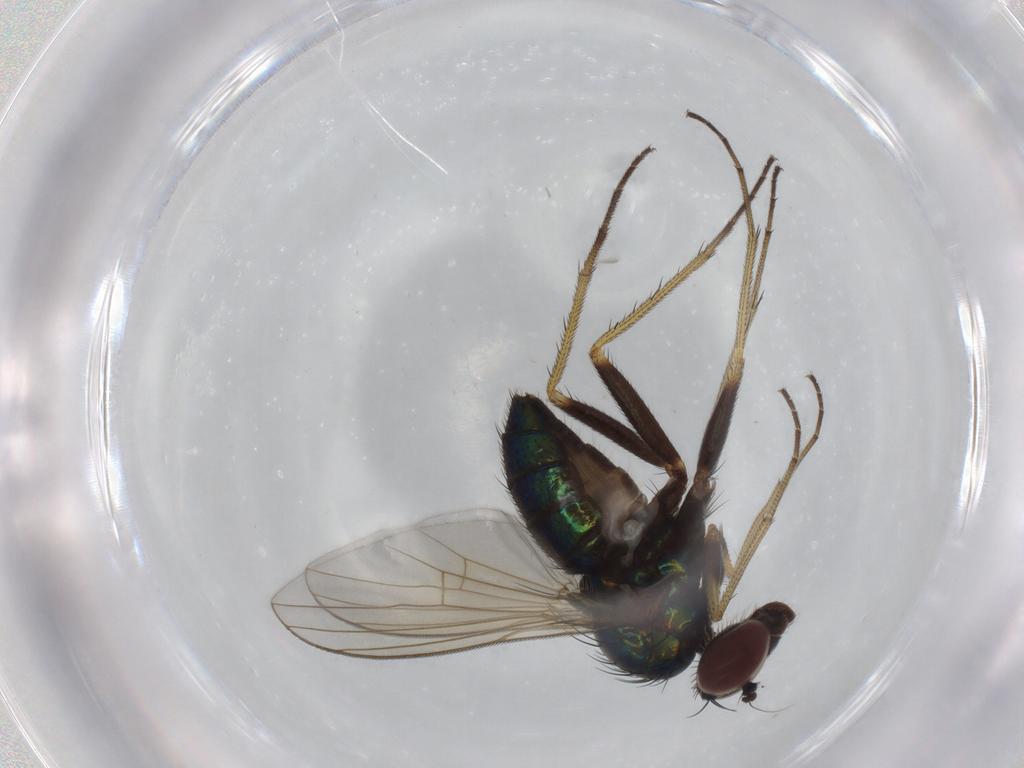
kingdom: Animalia
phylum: Arthropoda
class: Insecta
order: Diptera
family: Dolichopodidae
